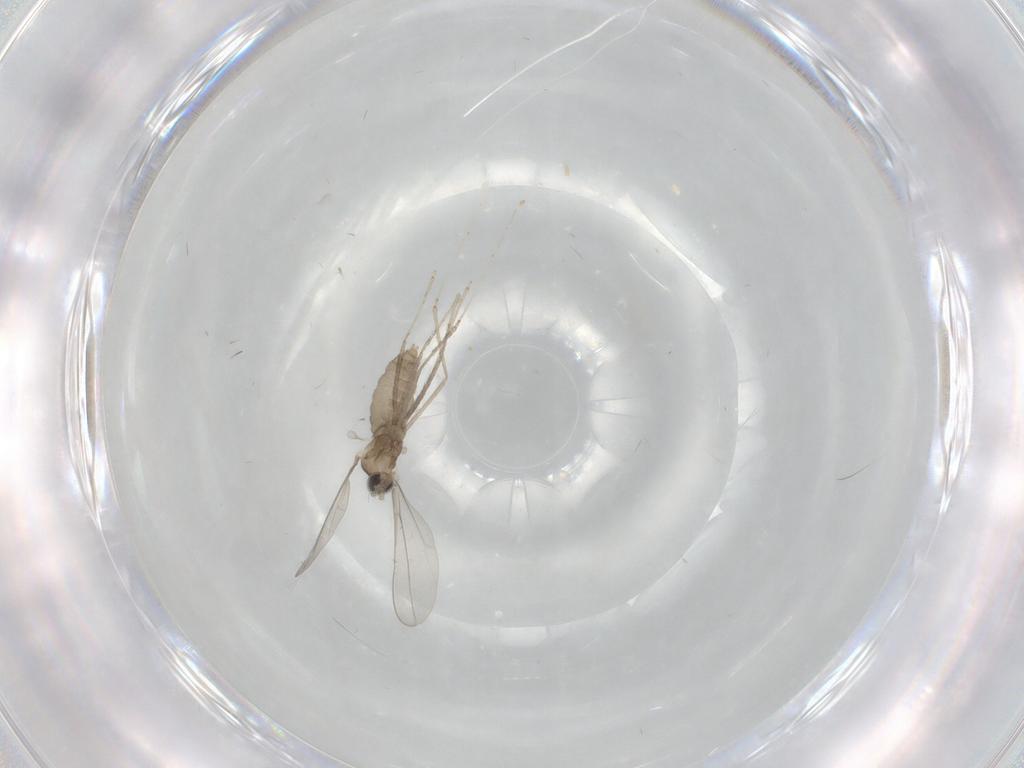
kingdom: Animalia
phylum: Arthropoda
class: Insecta
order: Diptera
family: Cecidomyiidae
